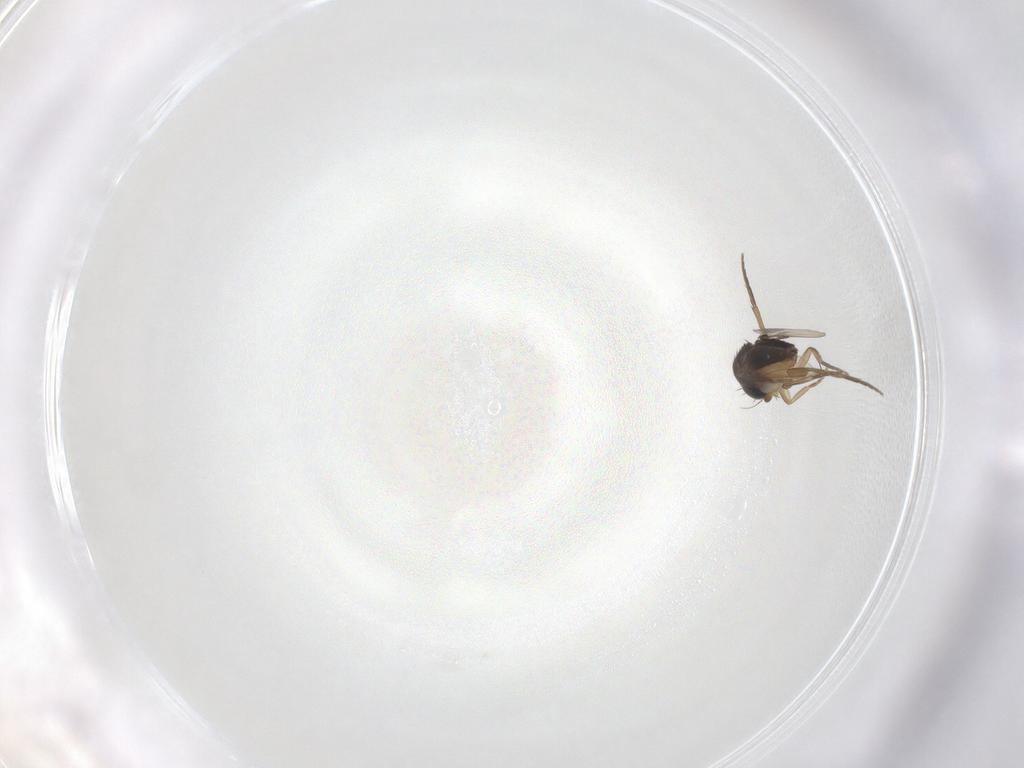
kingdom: Animalia
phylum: Arthropoda
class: Insecta
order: Diptera
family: Phoridae
